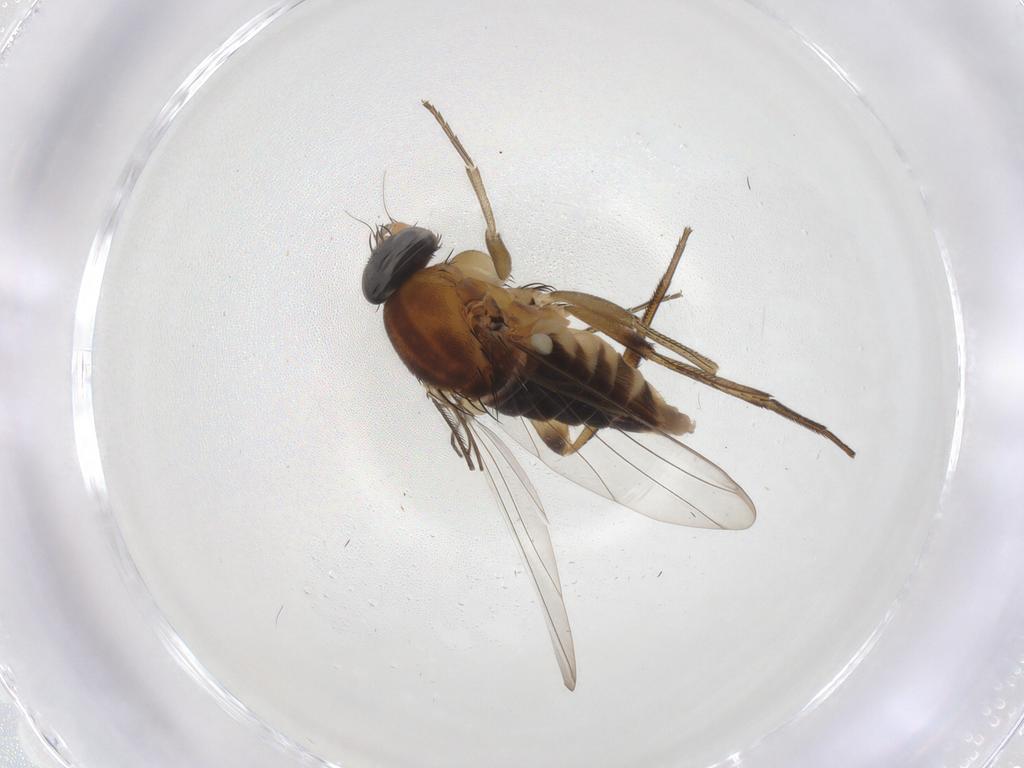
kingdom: Animalia
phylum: Arthropoda
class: Insecta
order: Diptera
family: Phoridae
